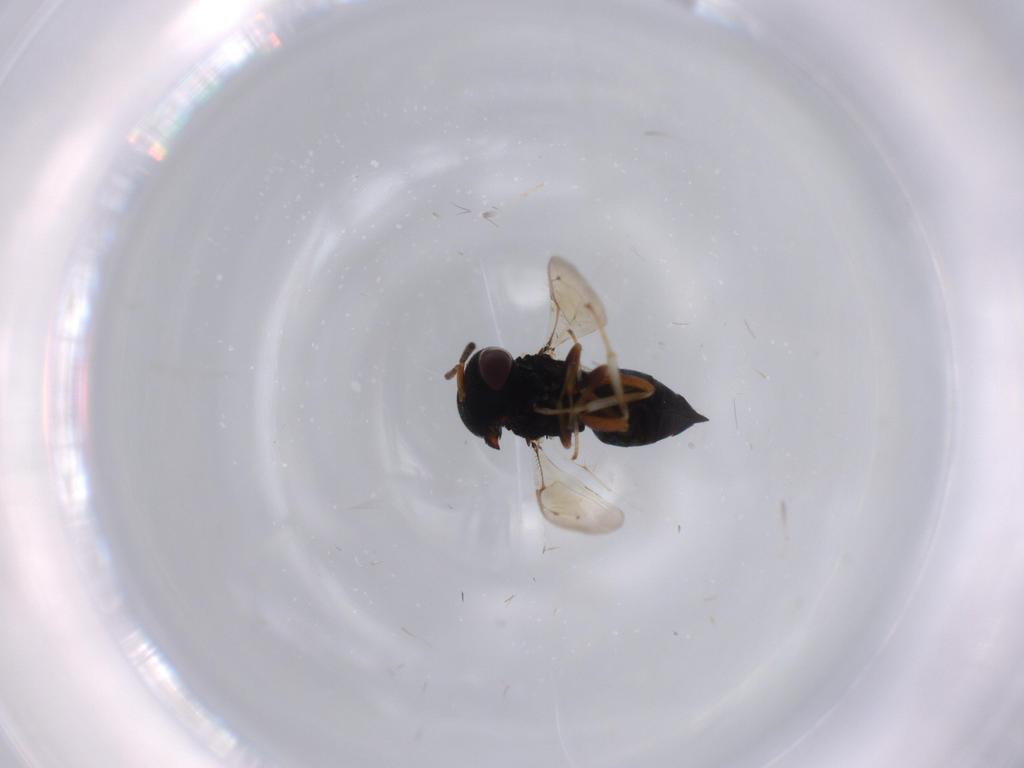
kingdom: Animalia
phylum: Arthropoda
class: Insecta
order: Hymenoptera
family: Pteromalidae
